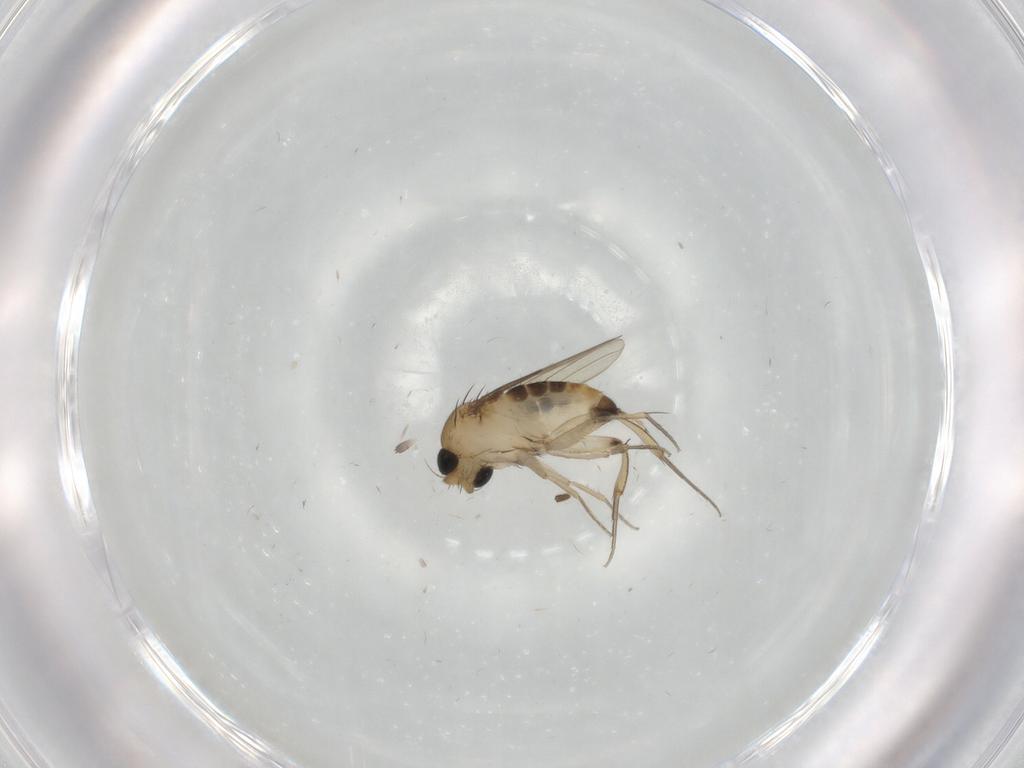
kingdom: Animalia
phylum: Arthropoda
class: Insecta
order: Diptera
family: Phoridae
